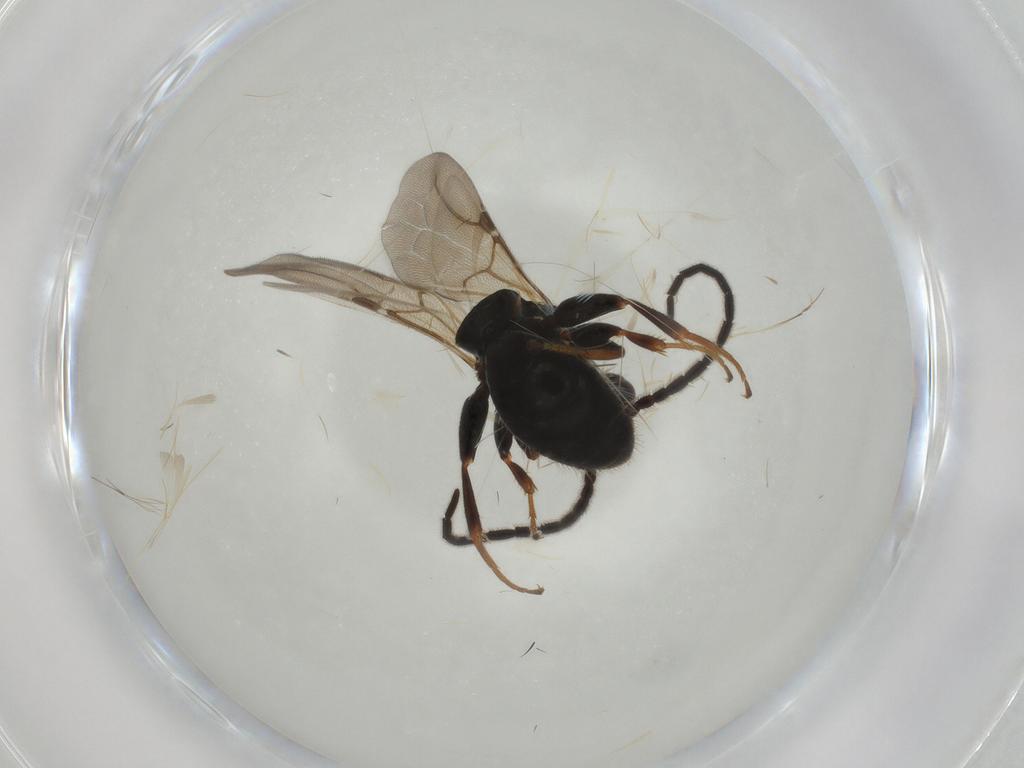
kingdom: Animalia
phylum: Arthropoda
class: Insecta
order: Hymenoptera
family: Bethylidae
